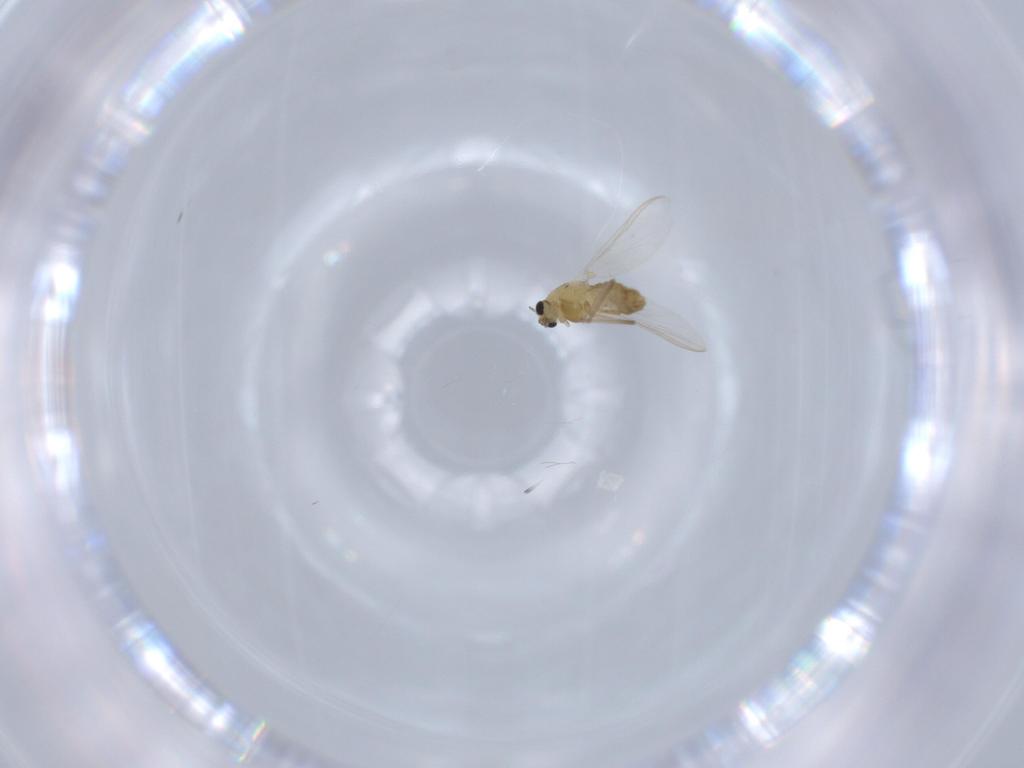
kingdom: Animalia
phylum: Arthropoda
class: Insecta
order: Diptera
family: Chironomidae
